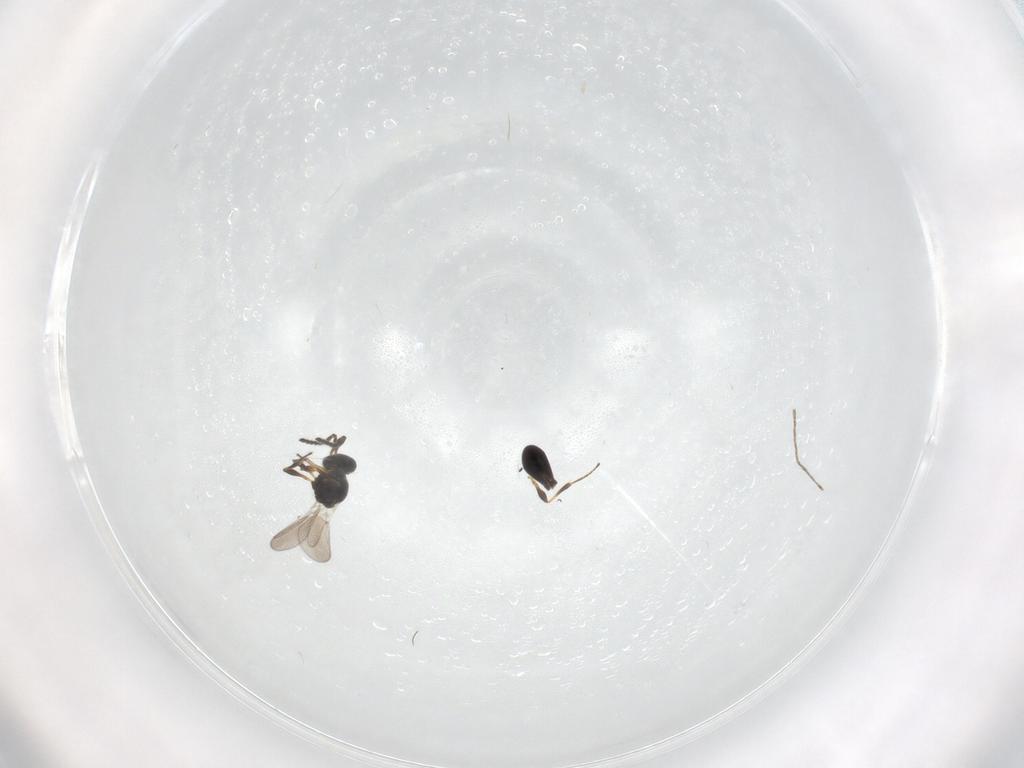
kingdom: Animalia
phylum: Arthropoda
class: Insecta
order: Hymenoptera
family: Platygastridae
